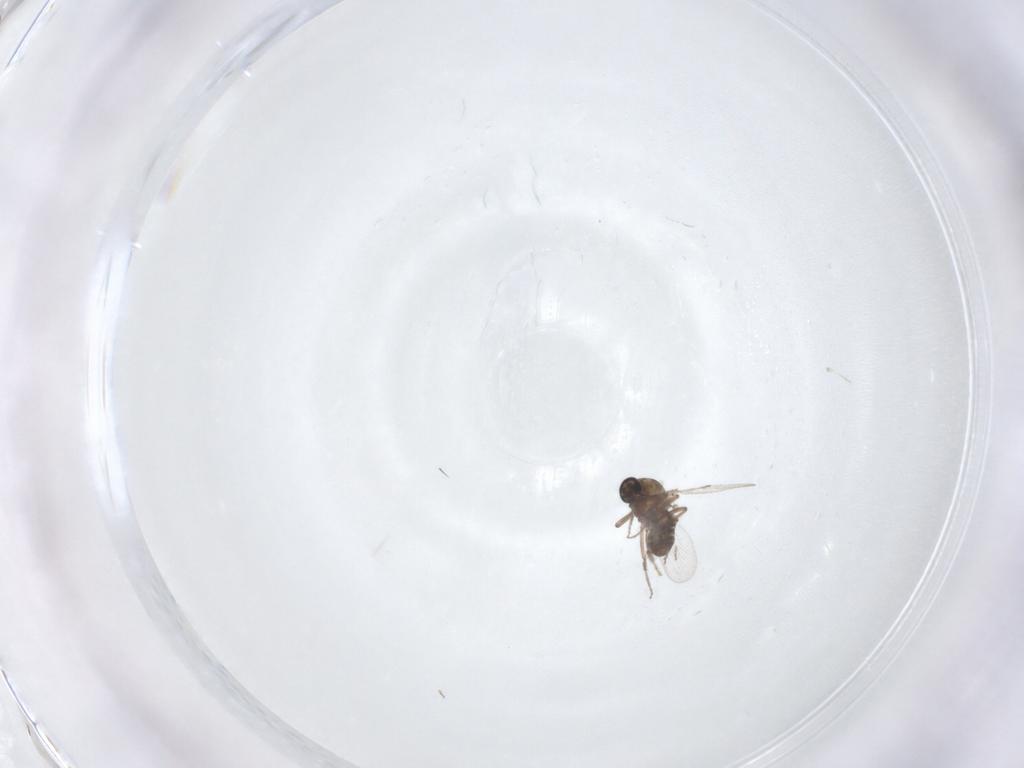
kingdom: Animalia
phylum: Arthropoda
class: Insecta
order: Diptera
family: Ceratopogonidae
